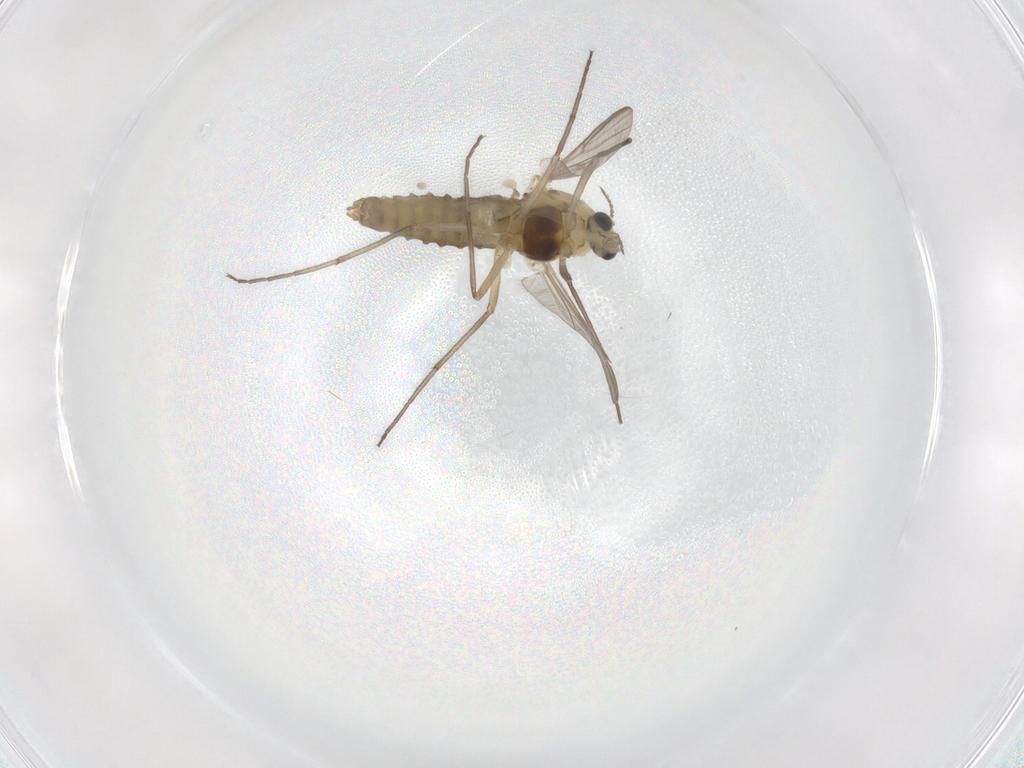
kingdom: Animalia
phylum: Arthropoda
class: Insecta
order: Diptera
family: Chironomidae
